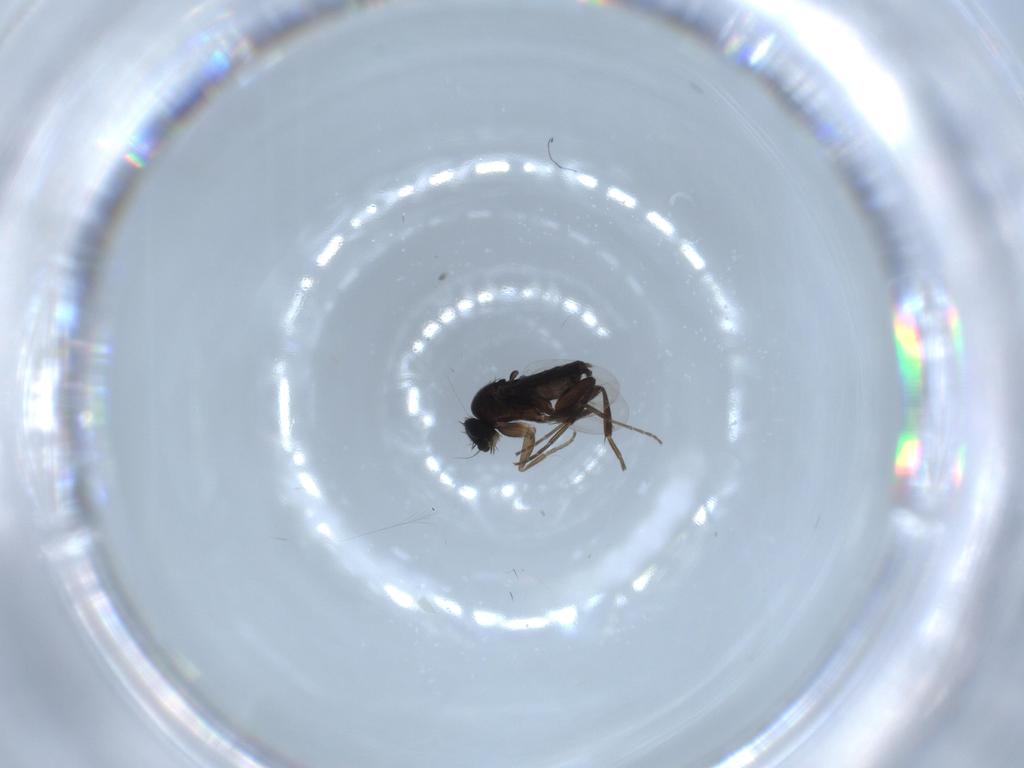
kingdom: Animalia
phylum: Arthropoda
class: Insecta
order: Diptera
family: Phoridae
